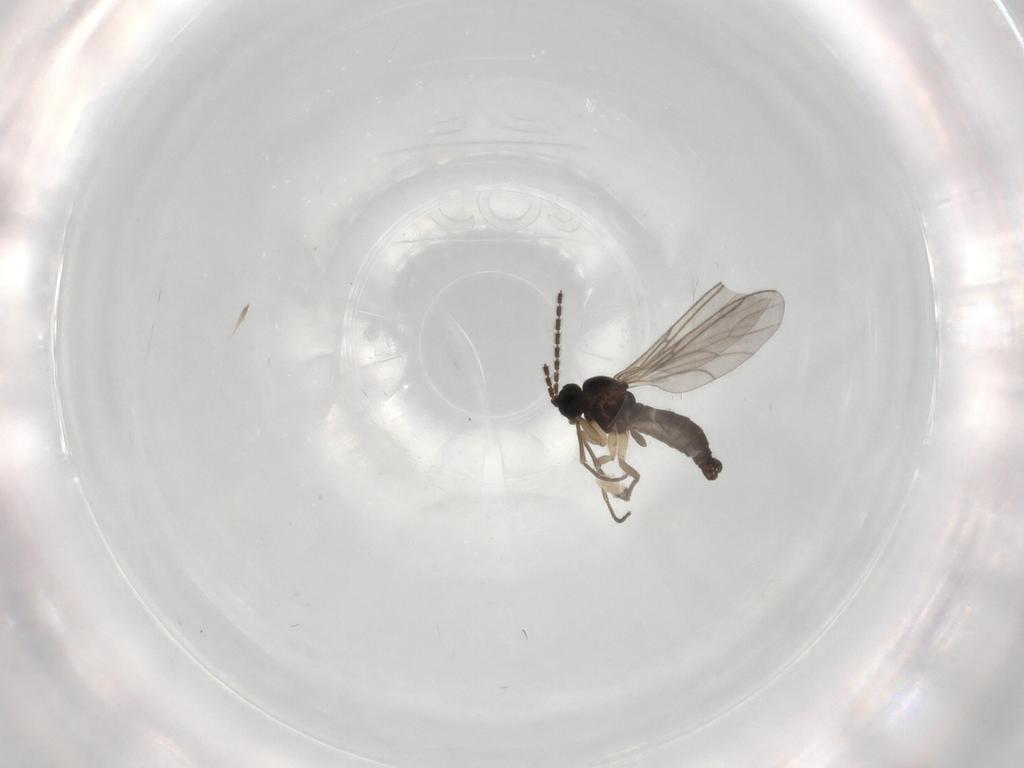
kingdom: Animalia
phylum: Arthropoda
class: Insecta
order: Diptera
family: Sciaridae
